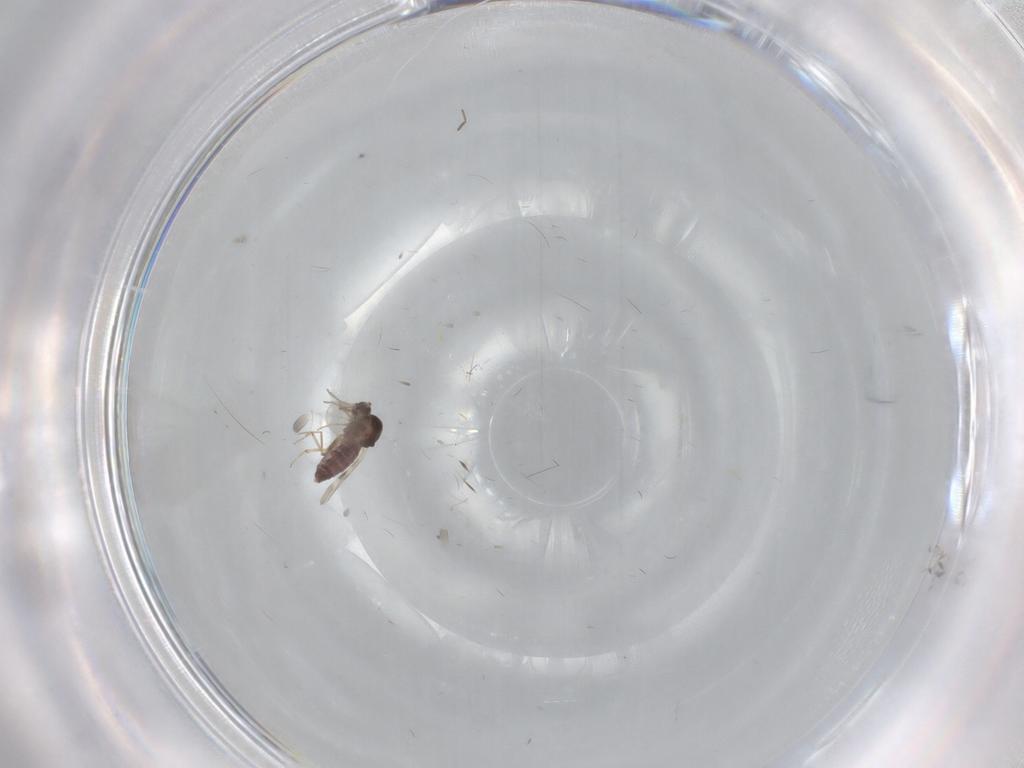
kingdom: Animalia
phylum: Arthropoda
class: Insecta
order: Diptera
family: Chironomidae
